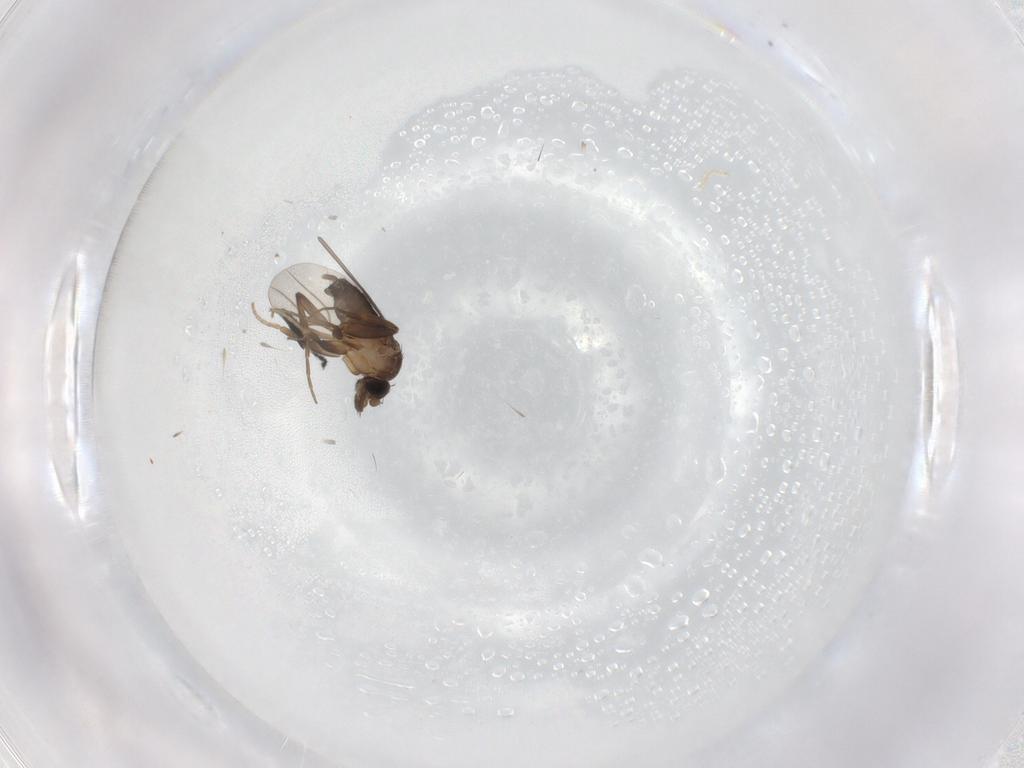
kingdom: Animalia
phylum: Arthropoda
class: Insecta
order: Diptera
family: Phoridae
